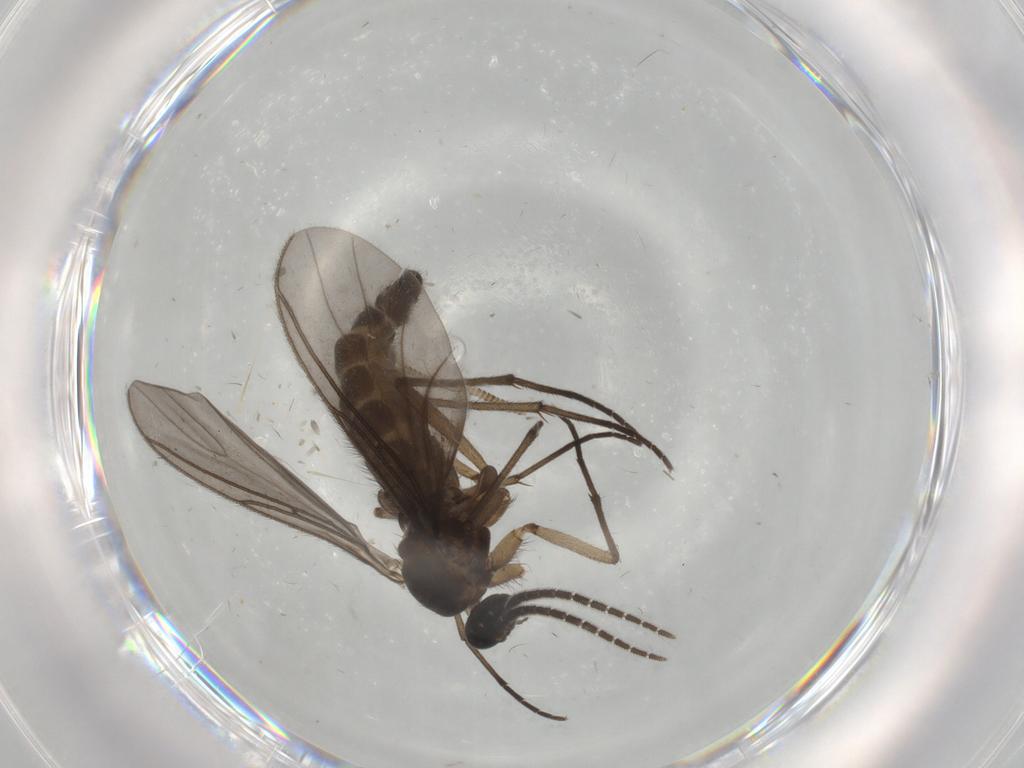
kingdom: Animalia
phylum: Arthropoda
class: Insecta
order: Diptera
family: Sciaridae
